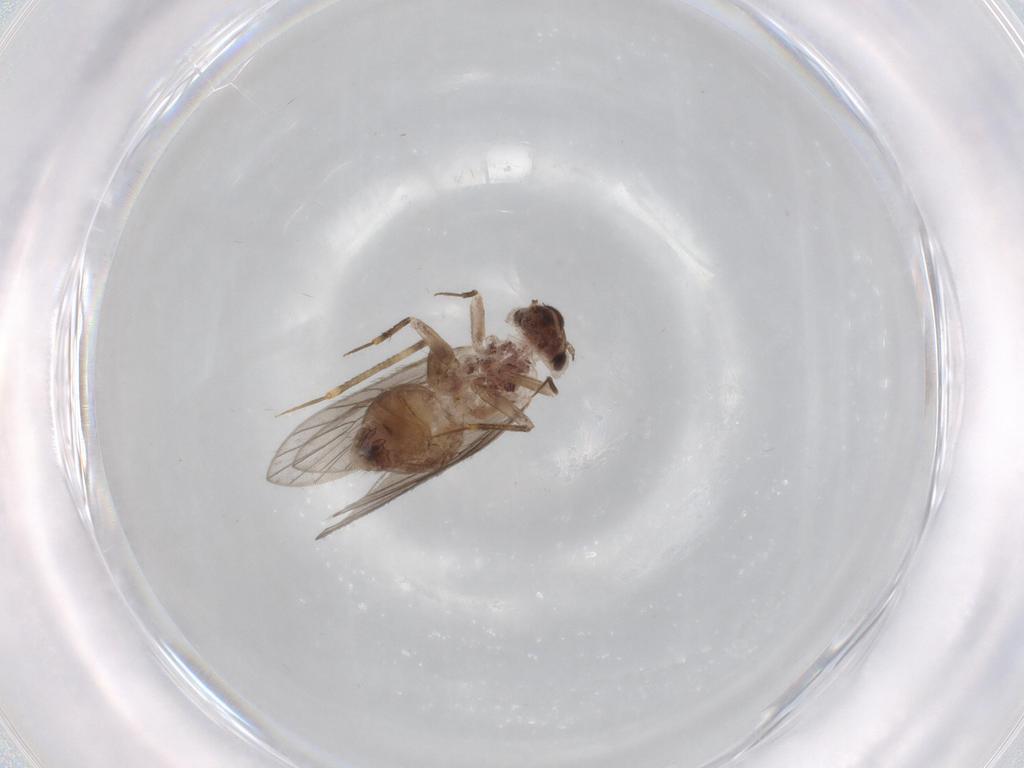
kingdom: Animalia
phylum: Arthropoda
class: Insecta
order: Psocodea
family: Lepidopsocidae
